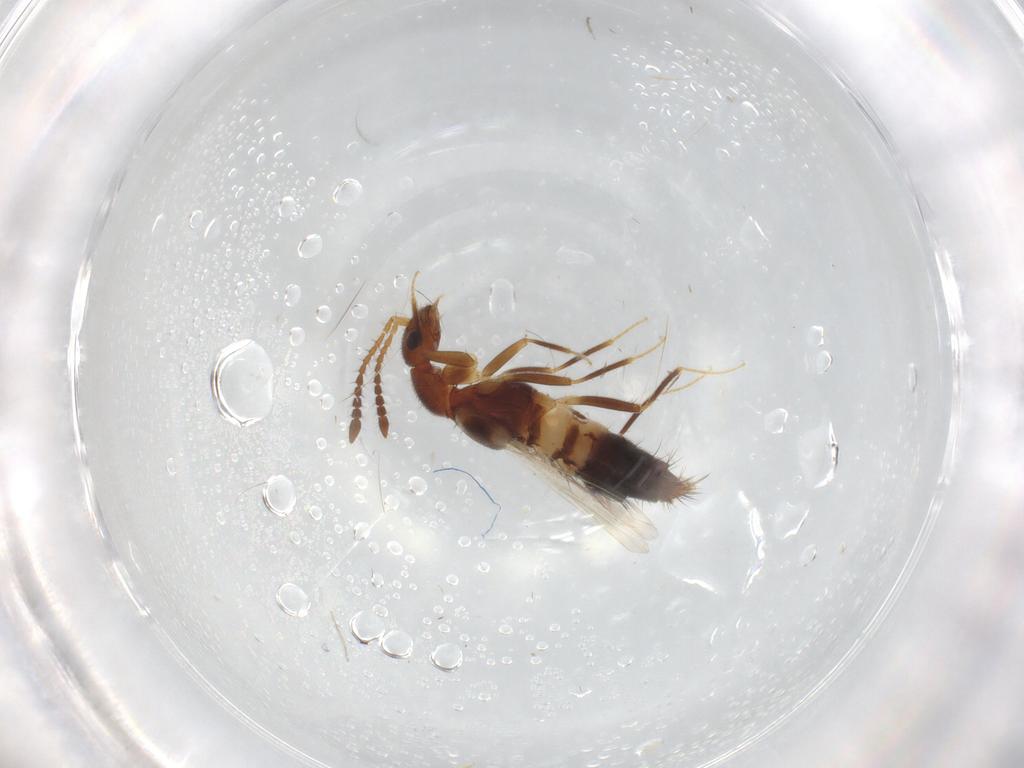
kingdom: Animalia
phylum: Arthropoda
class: Insecta
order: Coleoptera
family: Staphylinidae
